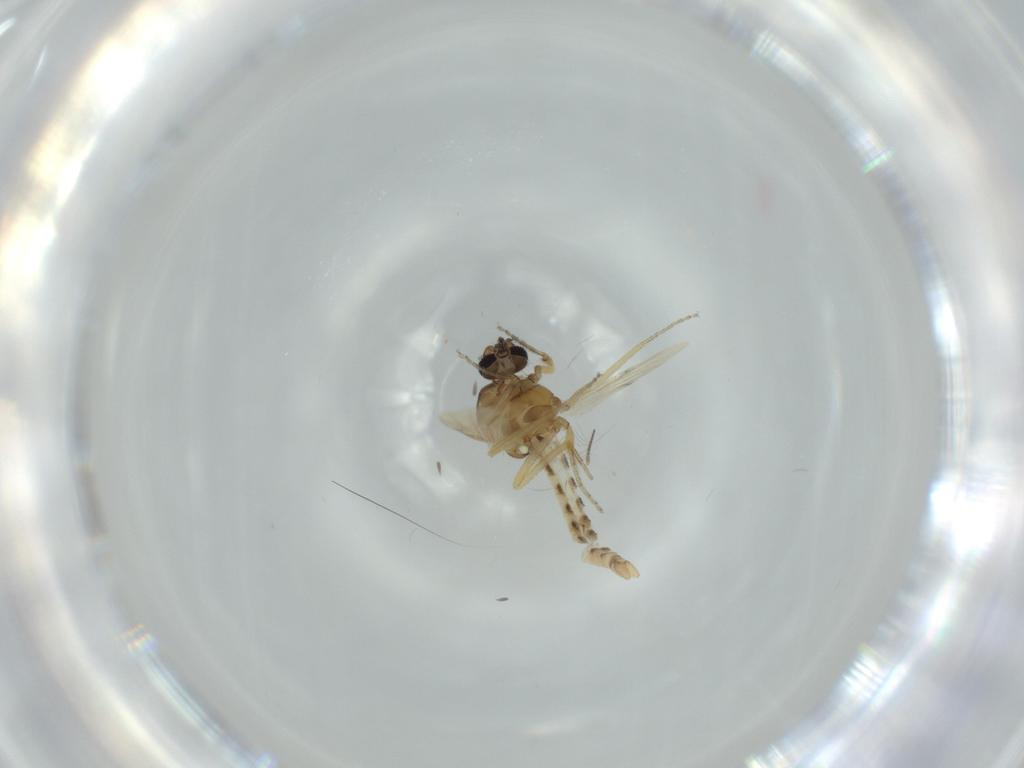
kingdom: Animalia
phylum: Arthropoda
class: Insecta
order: Diptera
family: Chironomidae
